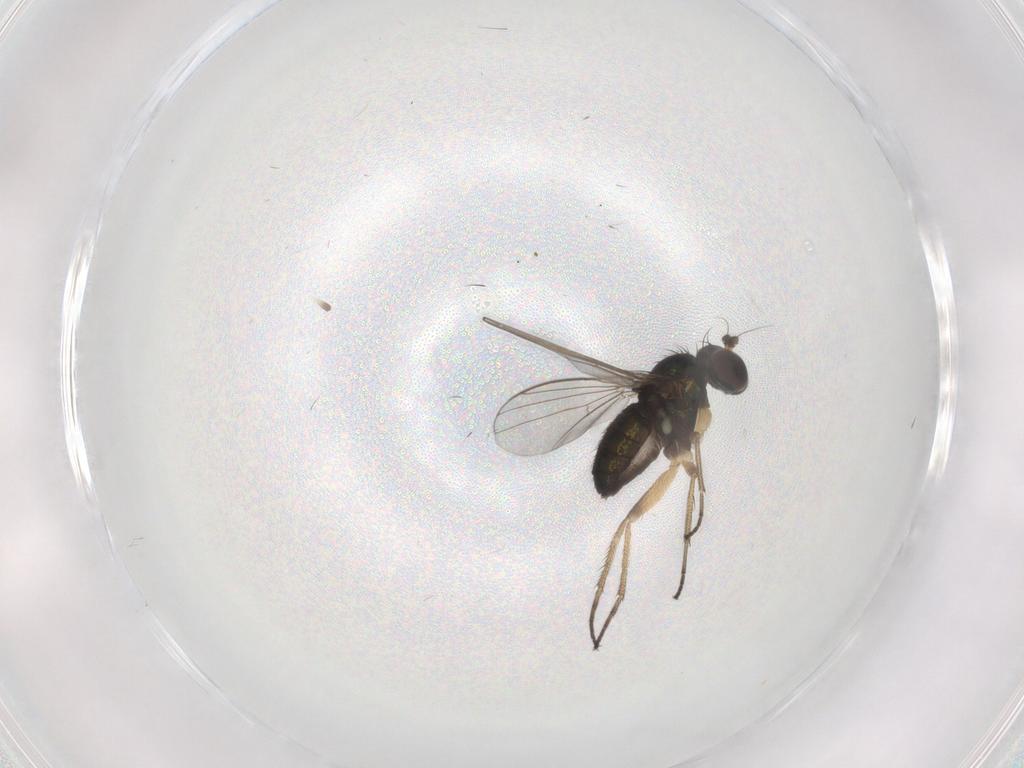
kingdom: Animalia
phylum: Arthropoda
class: Insecta
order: Diptera
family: Dolichopodidae
